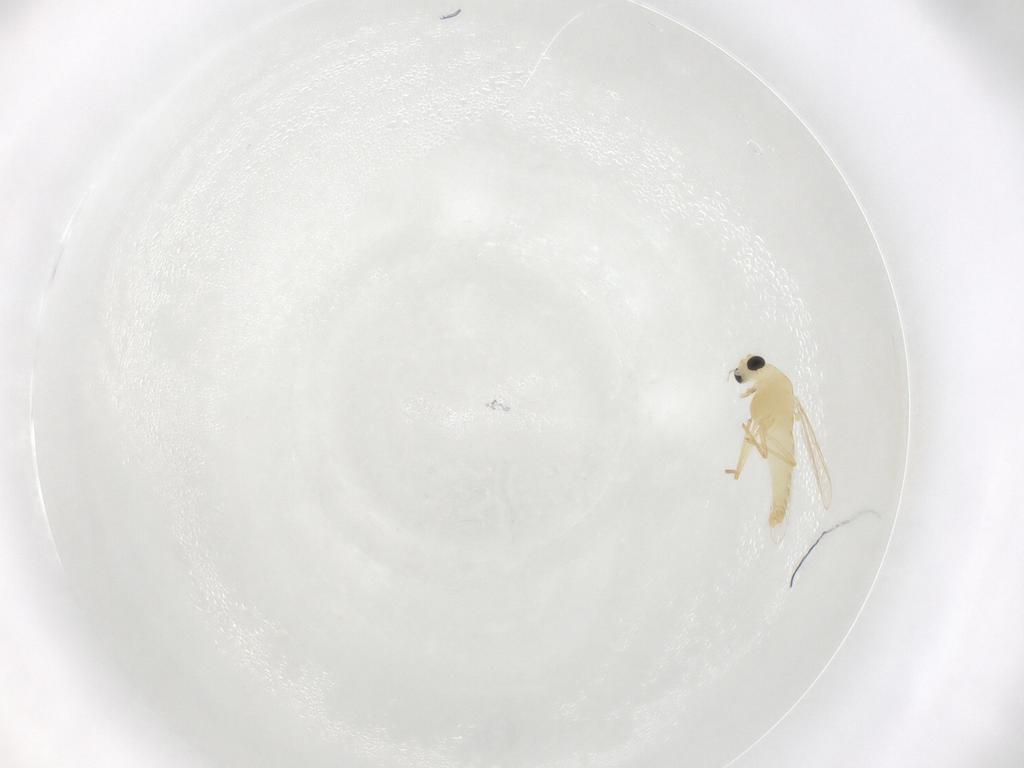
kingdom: Animalia
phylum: Arthropoda
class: Insecta
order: Diptera
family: Chironomidae
